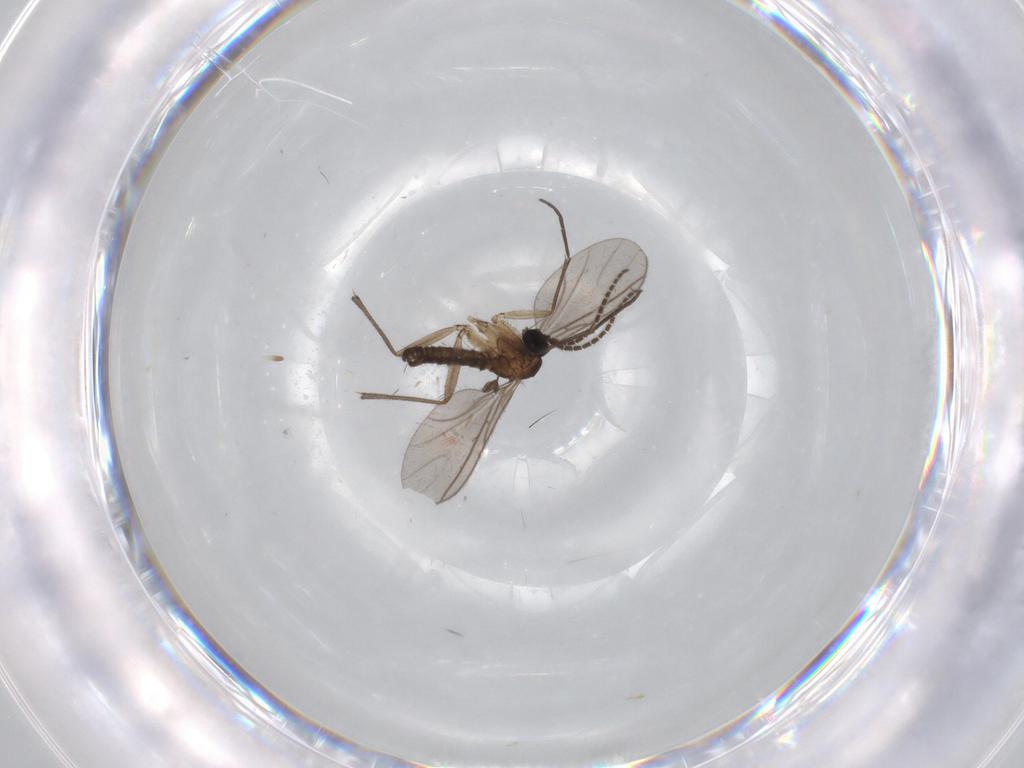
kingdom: Animalia
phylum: Arthropoda
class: Insecta
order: Diptera
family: Sciaridae
